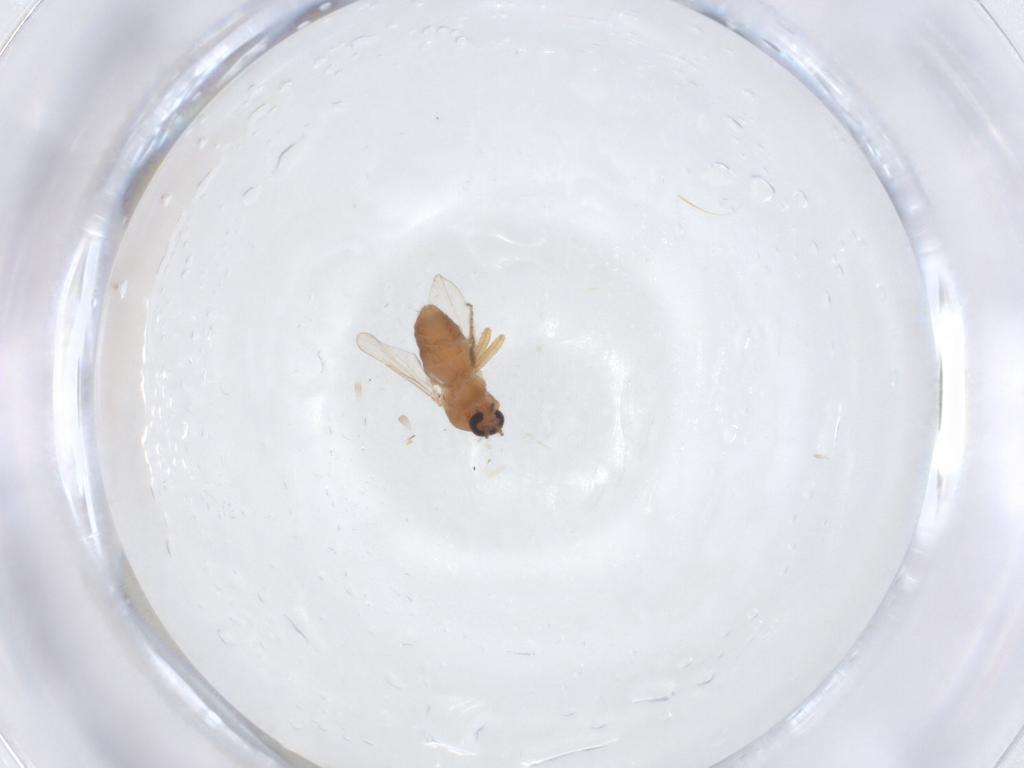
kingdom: Animalia
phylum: Arthropoda
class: Insecta
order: Diptera
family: Ceratopogonidae
